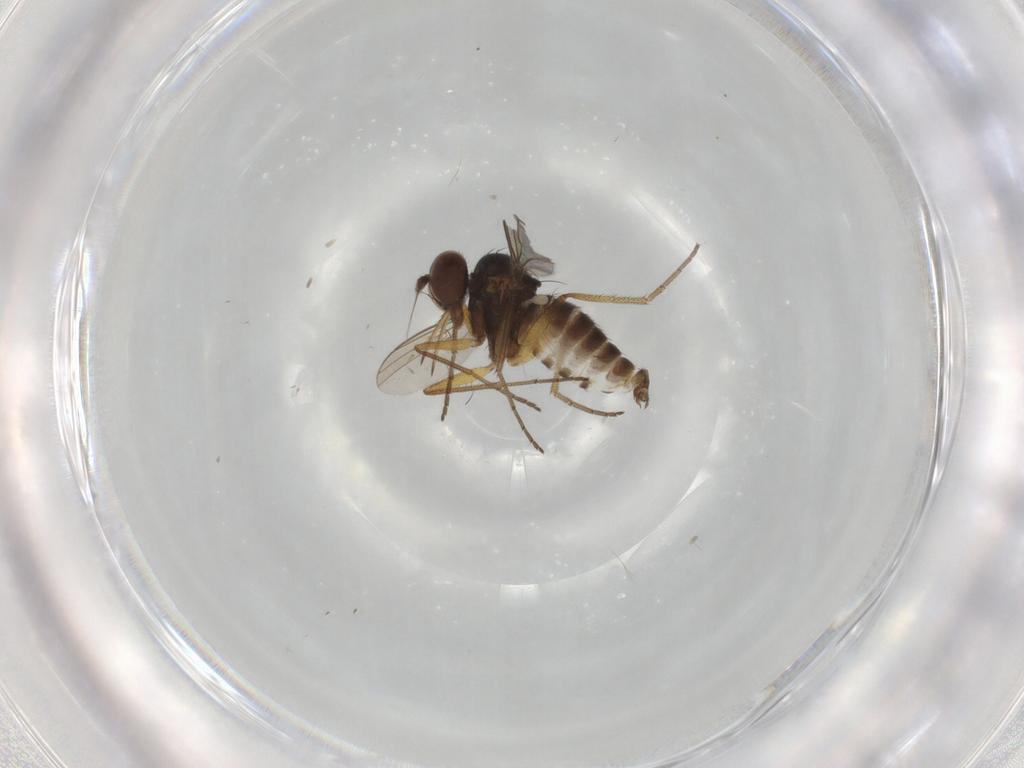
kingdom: Animalia
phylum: Arthropoda
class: Insecta
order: Diptera
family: Dolichopodidae
